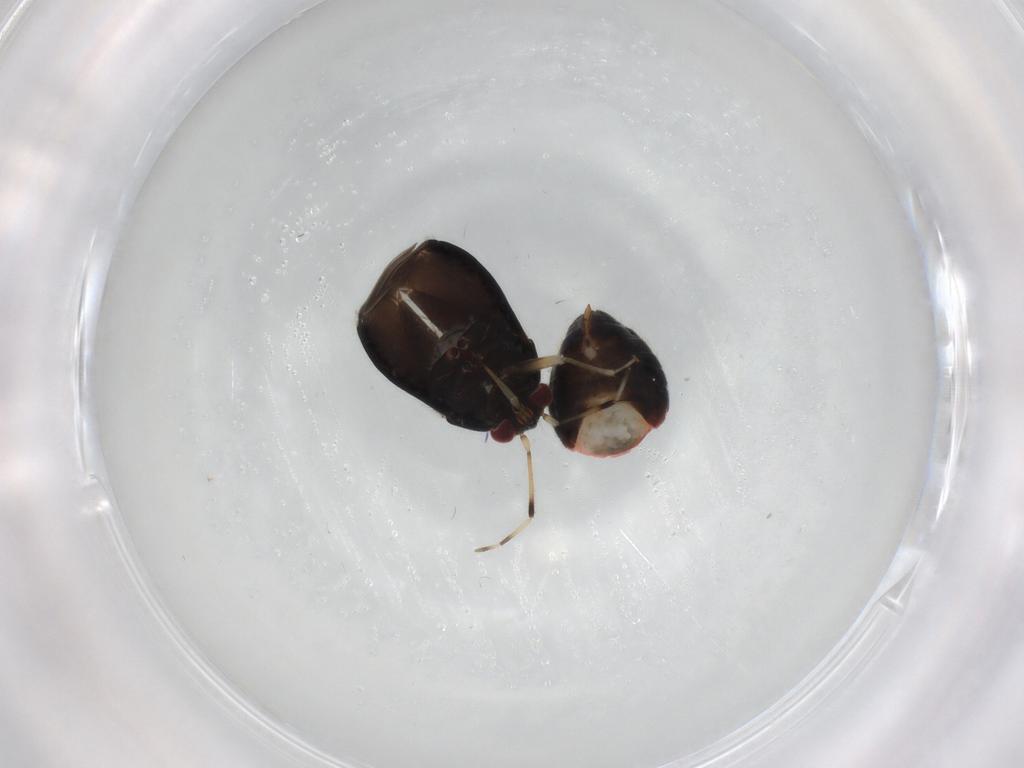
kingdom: Animalia
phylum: Arthropoda
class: Insecta
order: Hemiptera
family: Miridae
